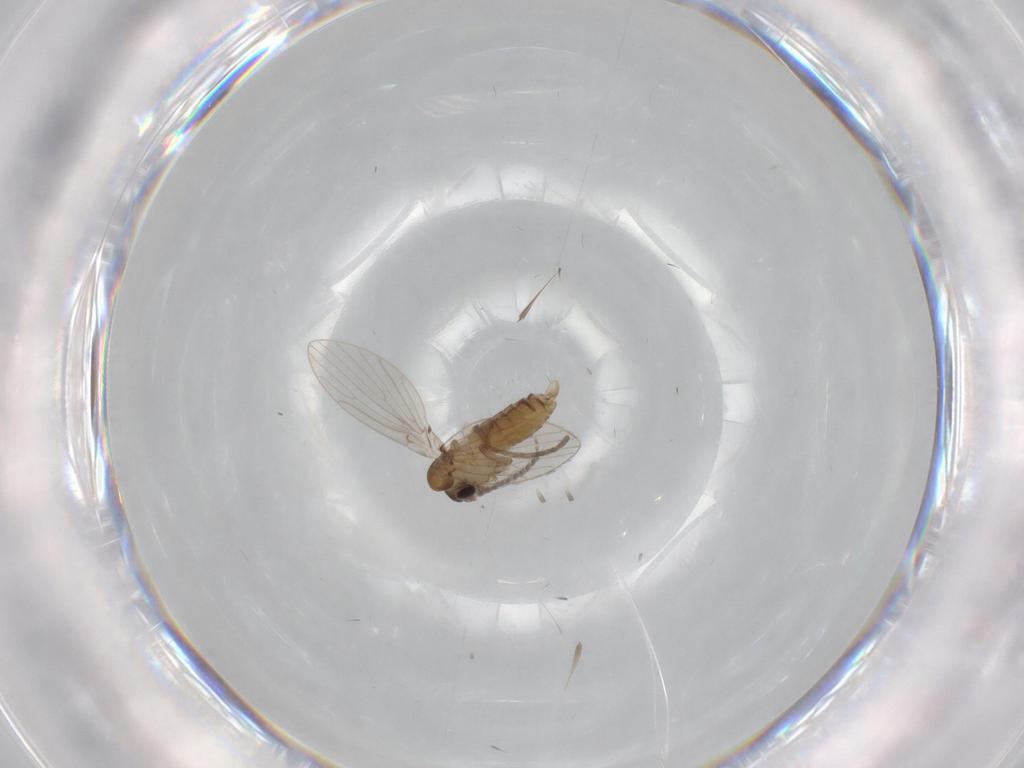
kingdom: Animalia
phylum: Arthropoda
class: Insecta
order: Diptera
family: Psychodidae
